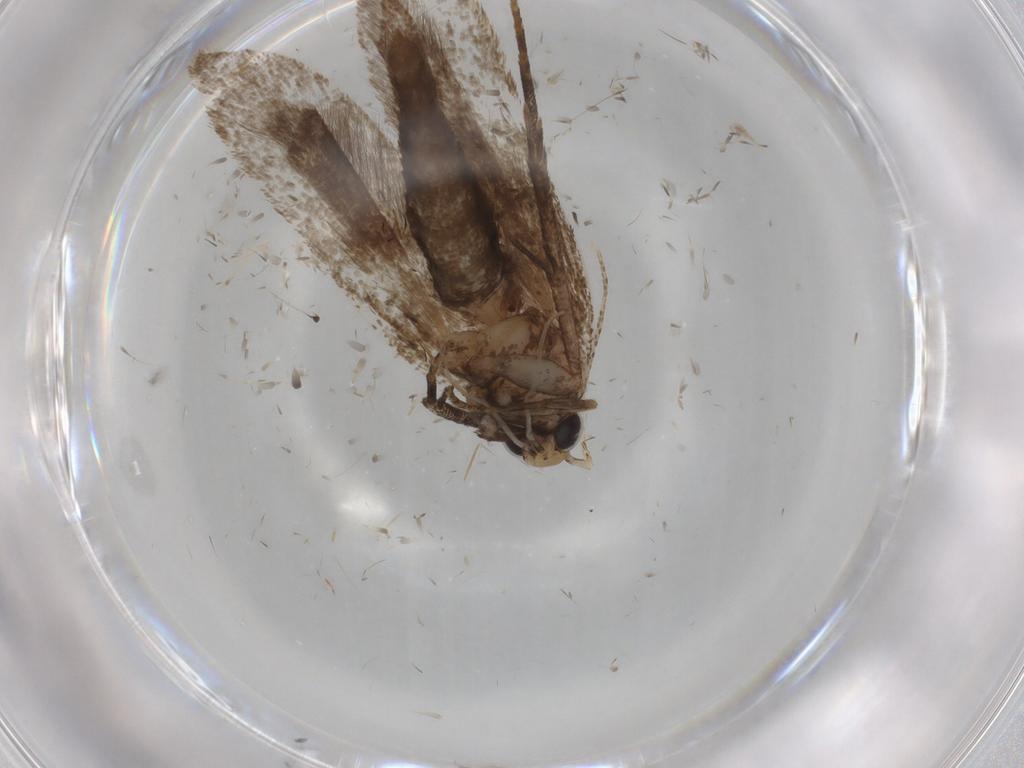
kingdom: Animalia
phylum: Arthropoda
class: Insecta
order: Lepidoptera
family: Gelechiidae
